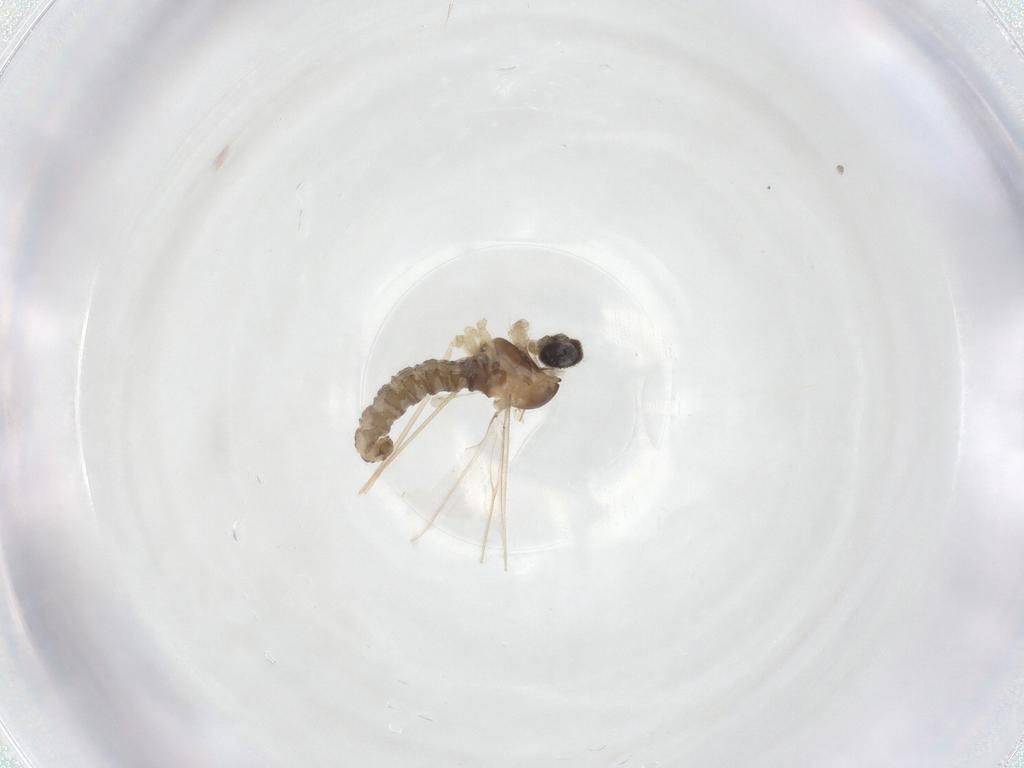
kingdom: Animalia
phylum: Arthropoda
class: Insecta
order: Diptera
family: Cecidomyiidae
